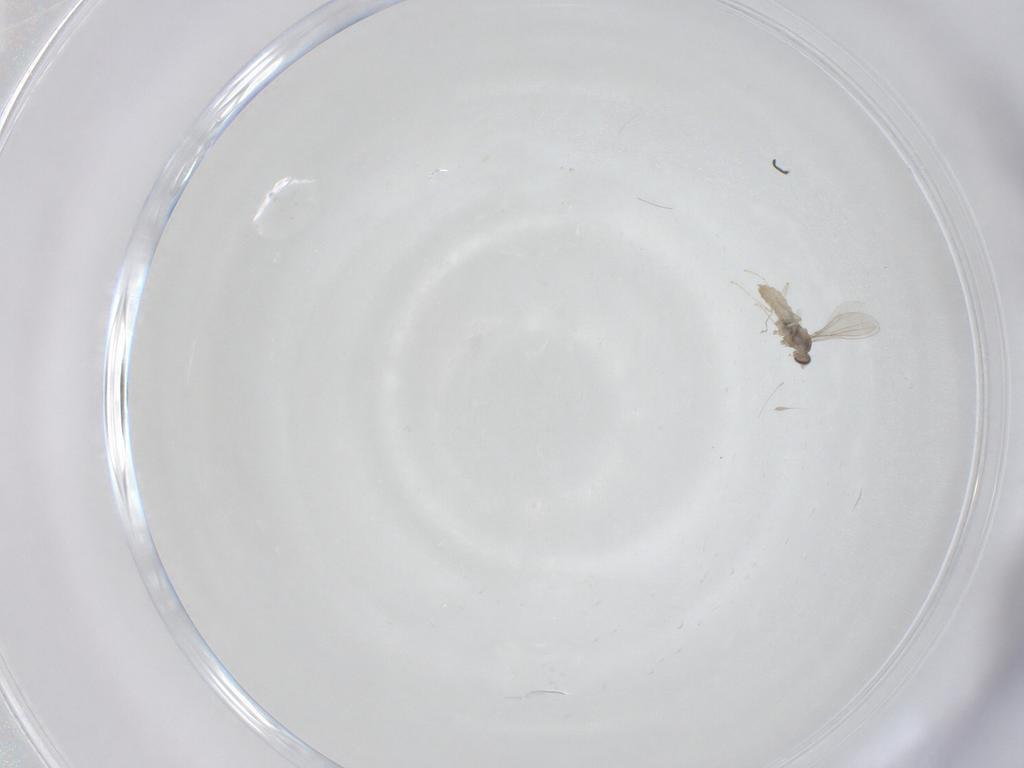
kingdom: Animalia
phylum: Arthropoda
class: Insecta
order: Diptera
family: Cecidomyiidae
